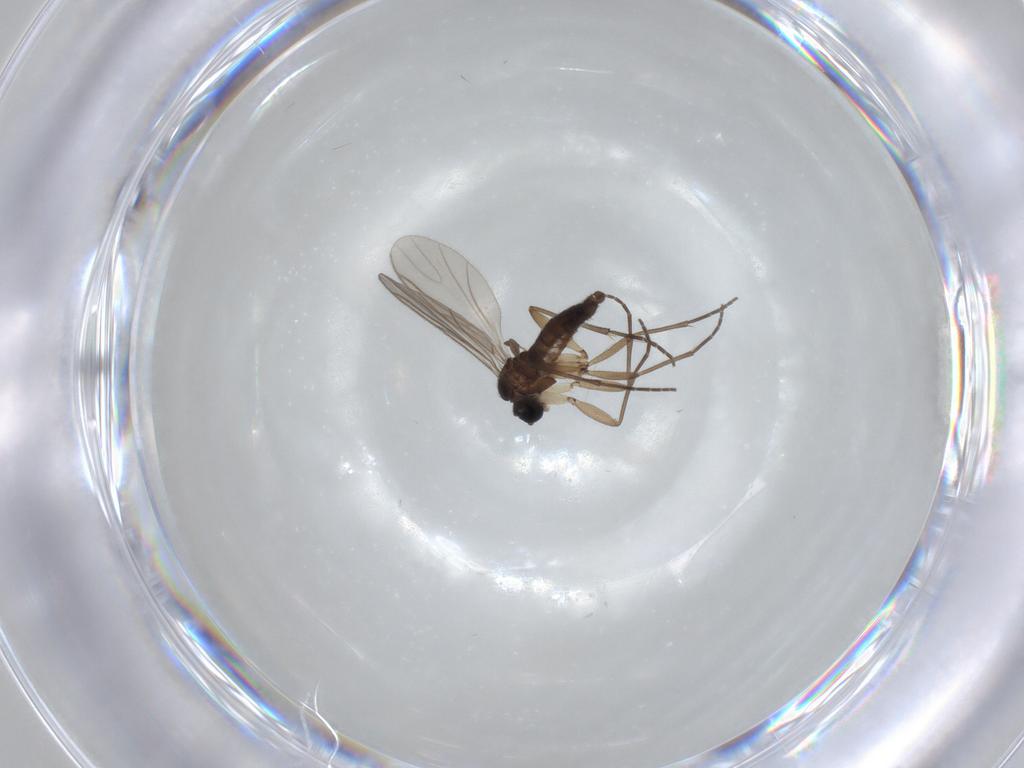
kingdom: Animalia
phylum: Arthropoda
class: Insecta
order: Diptera
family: Sciaridae
